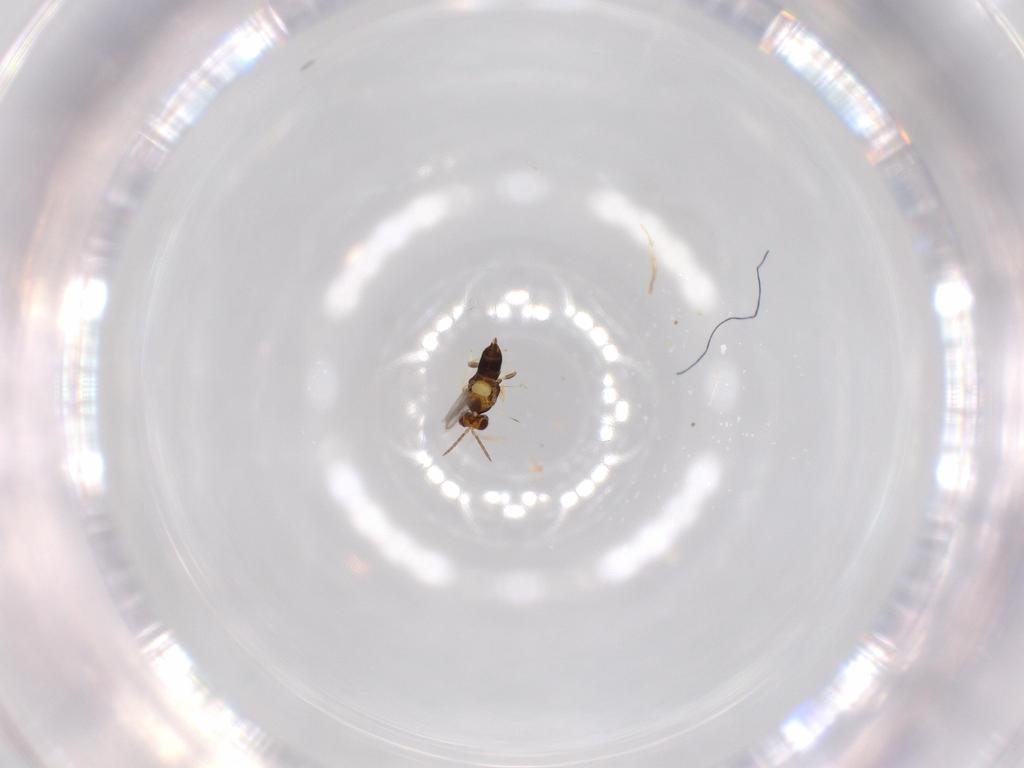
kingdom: Animalia
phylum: Arthropoda
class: Insecta
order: Hymenoptera
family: Aphelinidae
